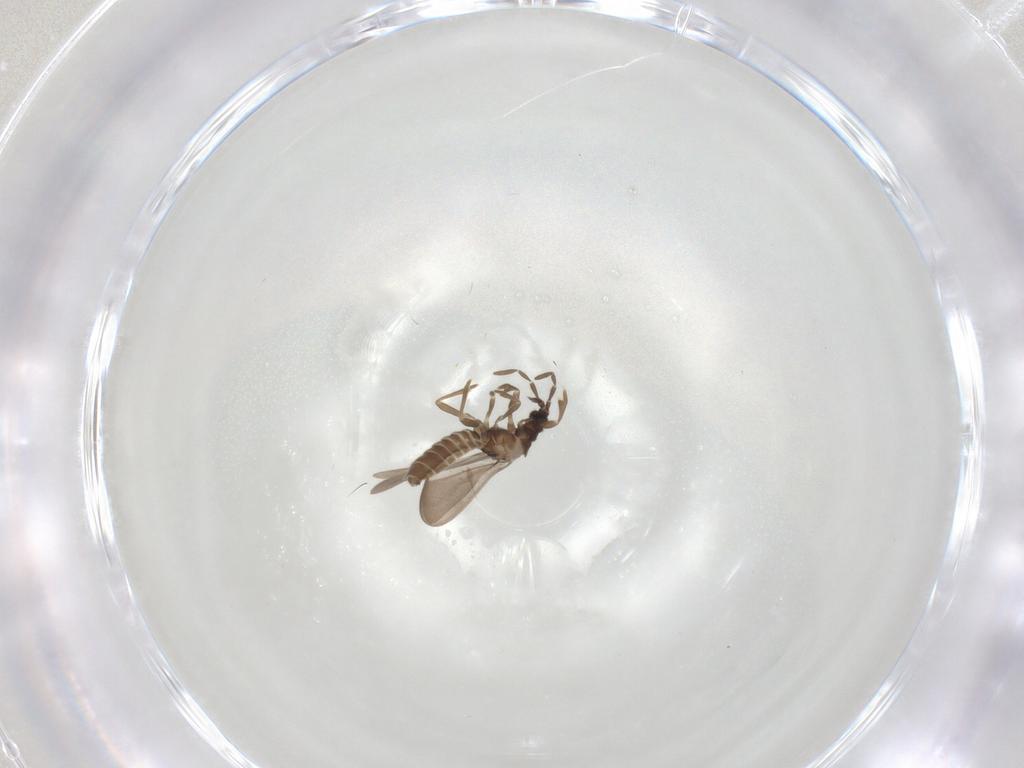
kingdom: Animalia
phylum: Arthropoda
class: Insecta
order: Hemiptera
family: Enicocephalidae
